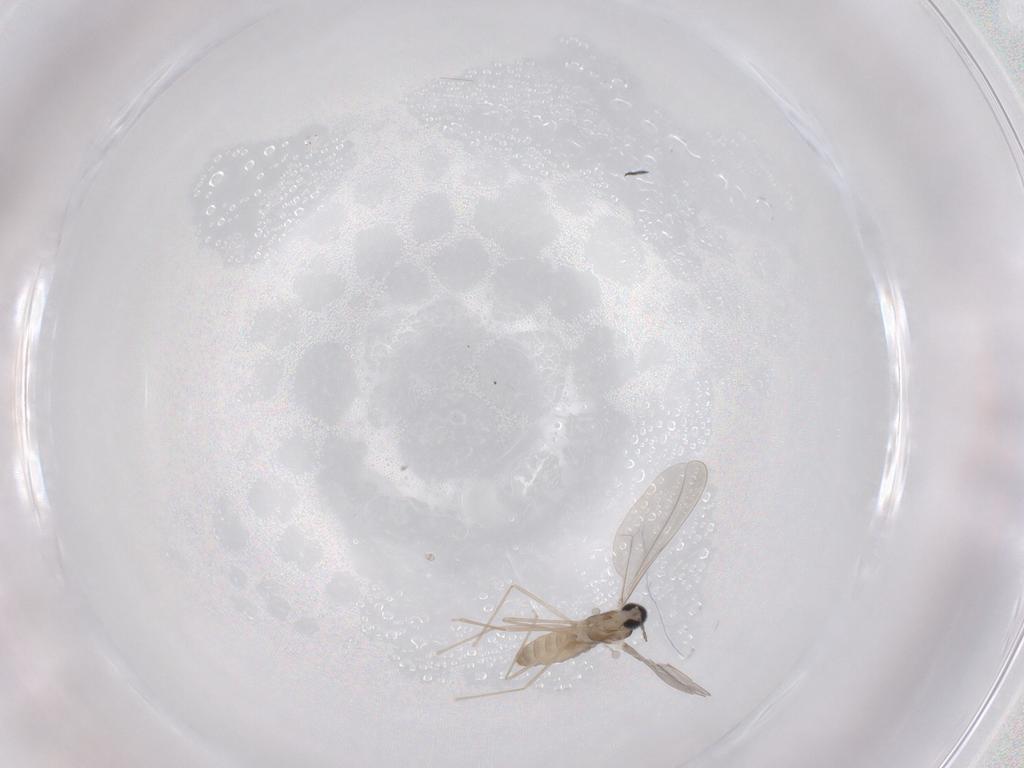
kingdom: Animalia
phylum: Arthropoda
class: Insecta
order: Diptera
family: Cecidomyiidae
